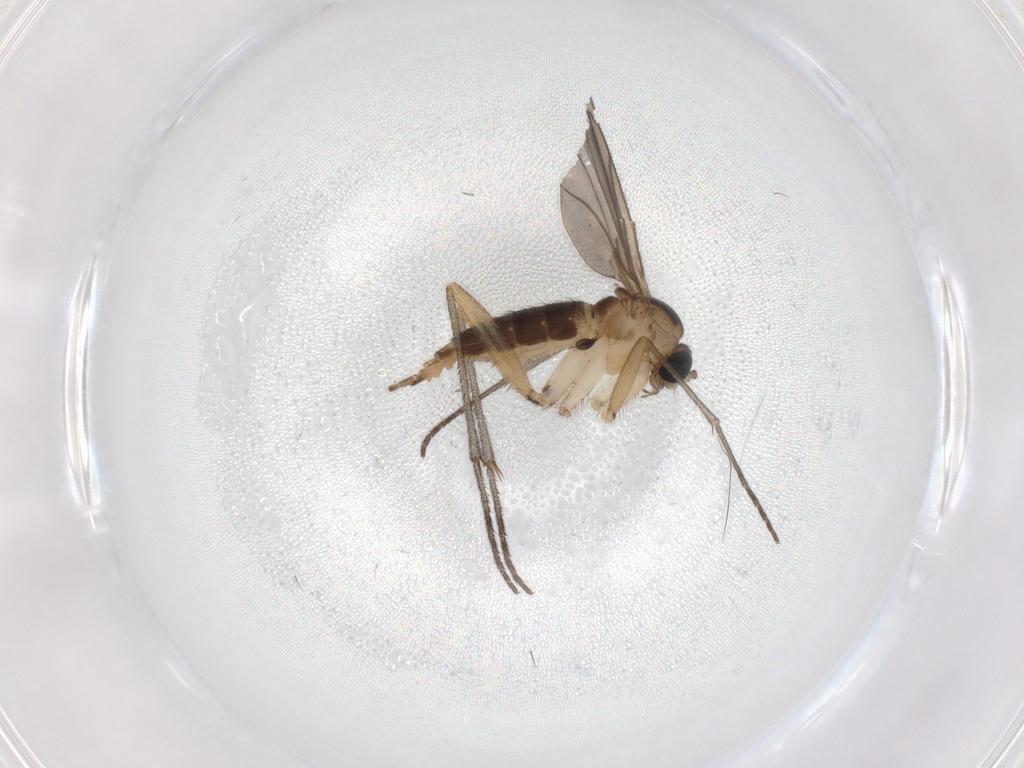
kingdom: Animalia
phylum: Arthropoda
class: Insecta
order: Diptera
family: Sciaridae
